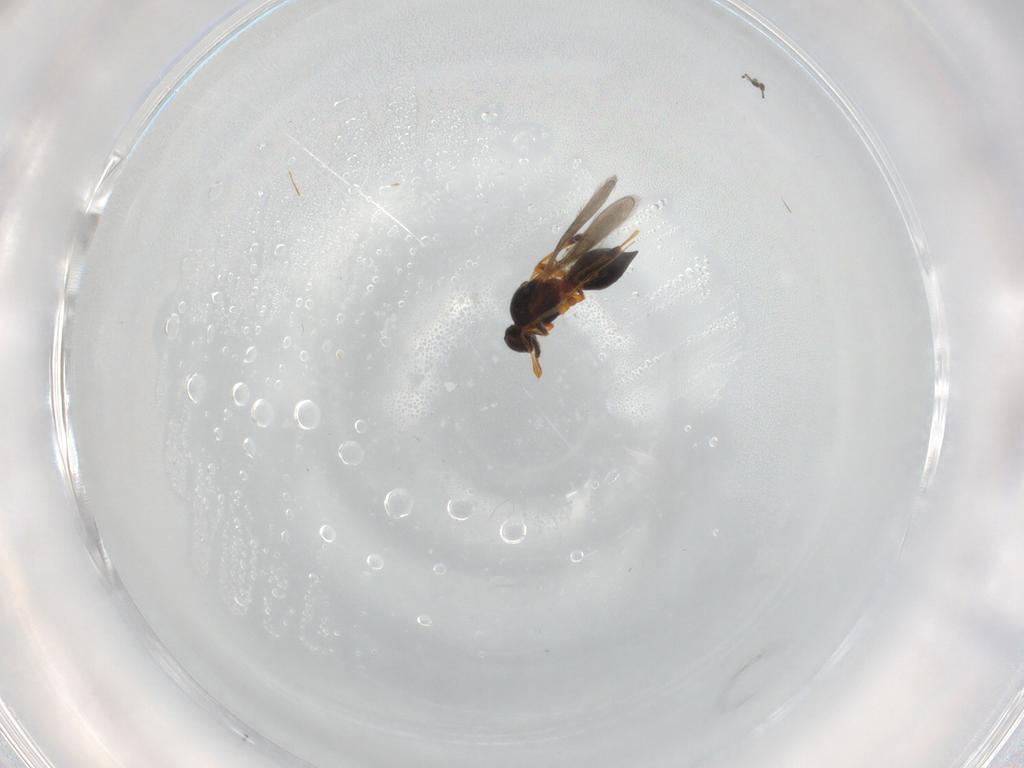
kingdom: Animalia
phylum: Arthropoda
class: Insecta
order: Hymenoptera
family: Platygastridae
